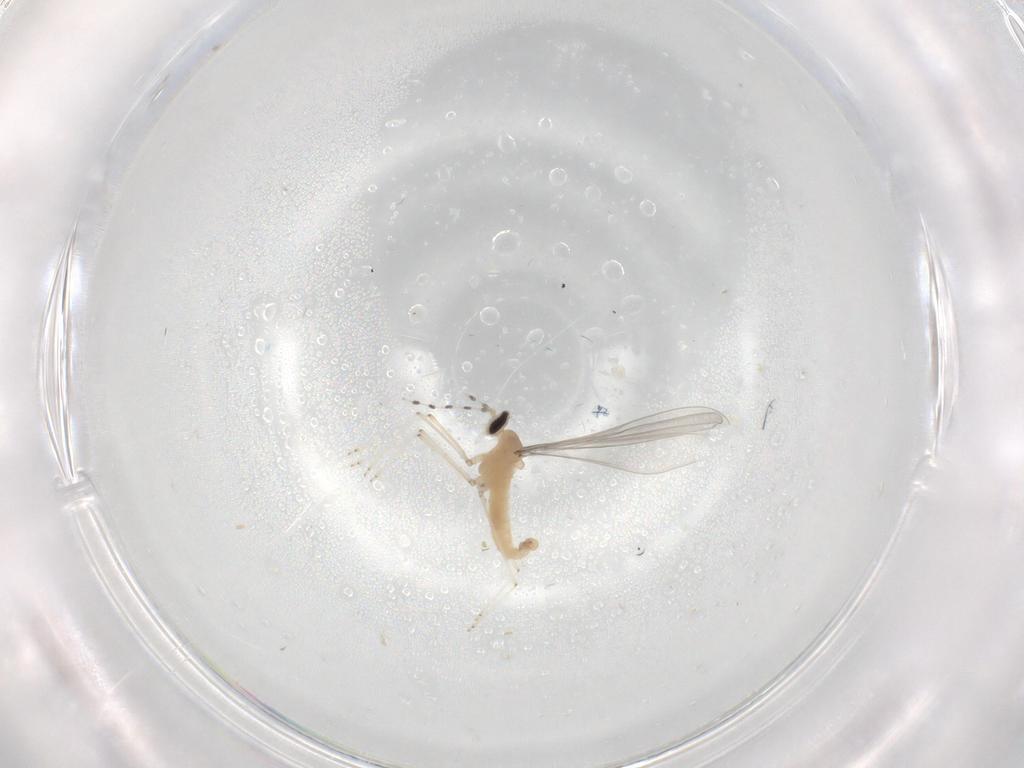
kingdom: Animalia
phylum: Arthropoda
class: Insecta
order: Diptera
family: Cecidomyiidae
